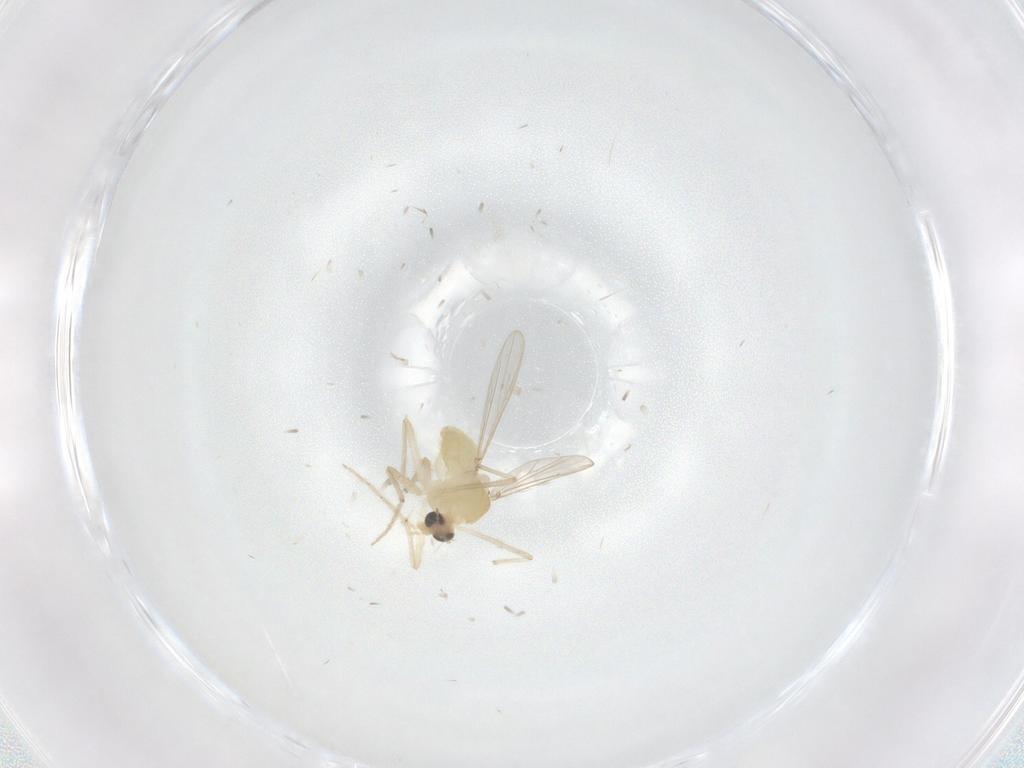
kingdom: Animalia
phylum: Arthropoda
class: Insecta
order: Diptera
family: Chironomidae
